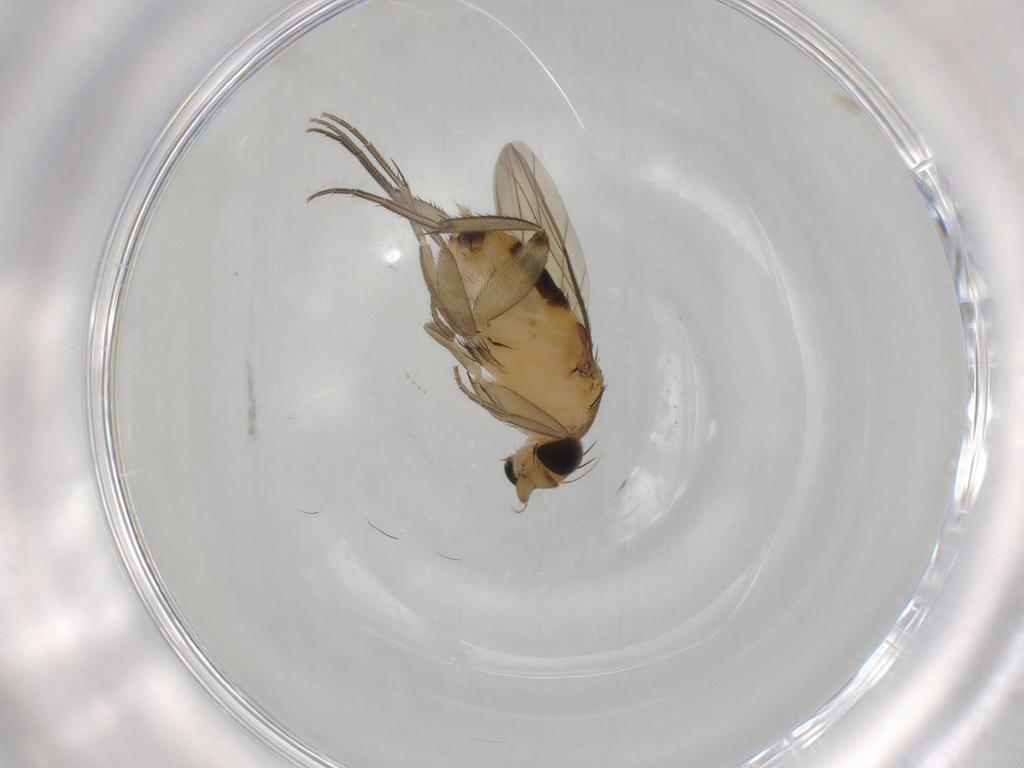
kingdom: Animalia
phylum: Arthropoda
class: Insecta
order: Diptera
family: Phoridae
